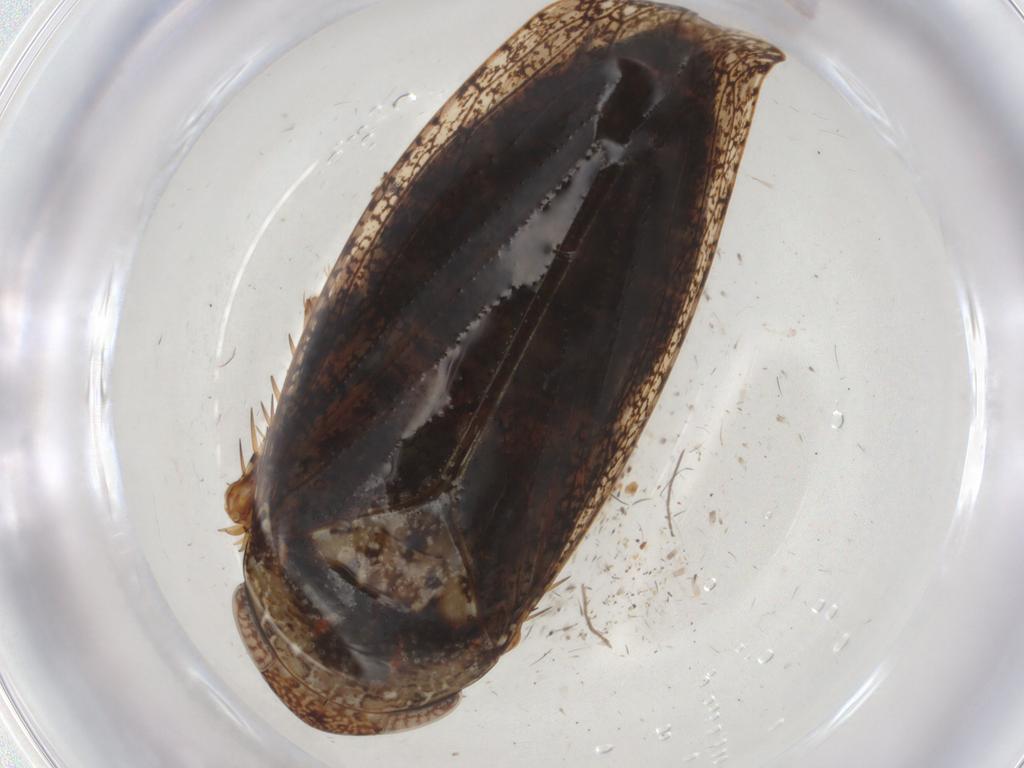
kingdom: Animalia
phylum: Arthropoda
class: Insecta
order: Hemiptera
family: Cicadellidae
